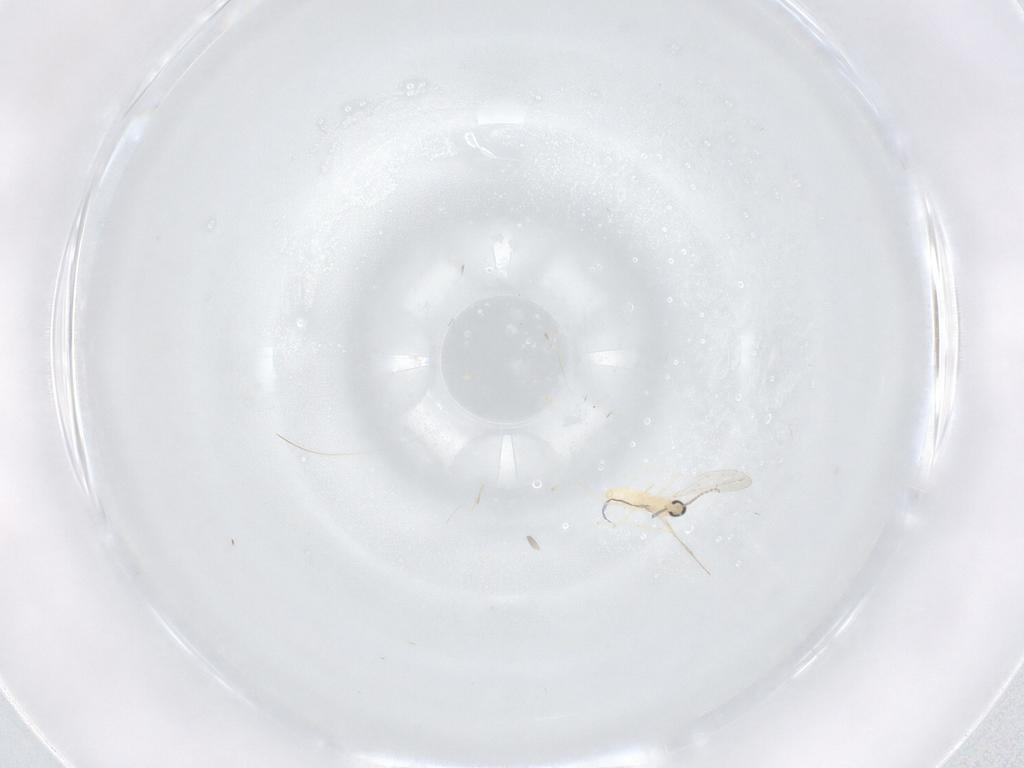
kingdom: Animalia
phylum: Arthropoda
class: Insecta
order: Diptera
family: Cecidomyiidae
